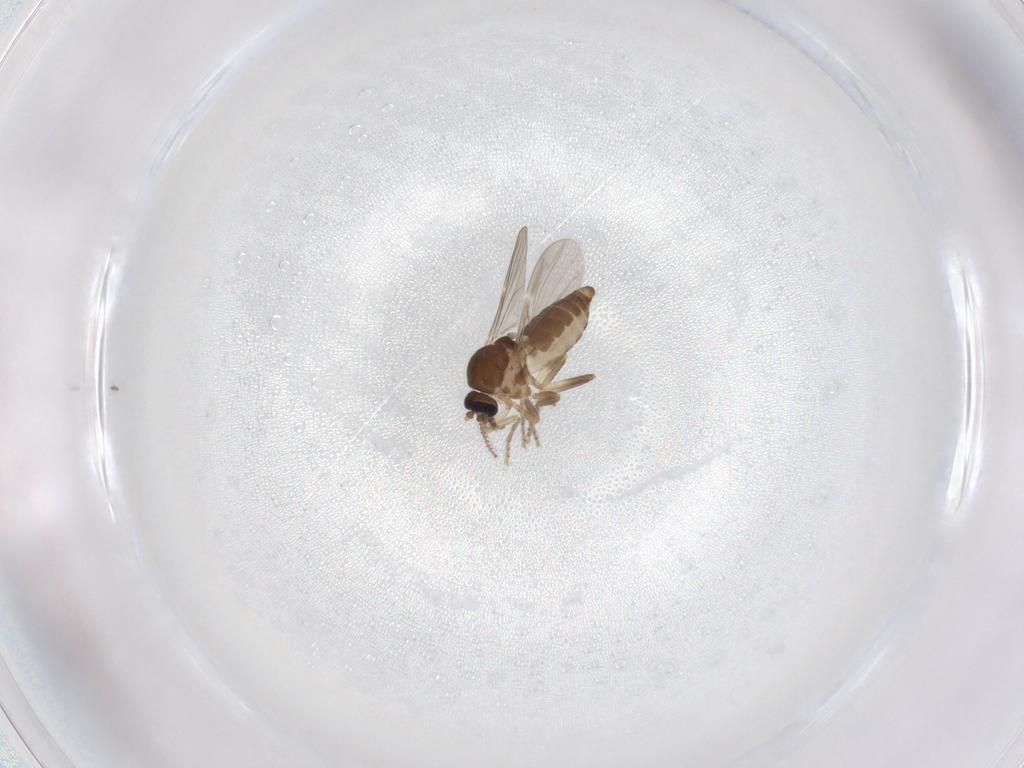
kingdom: Animalia
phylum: Arthropoda
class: Insecta
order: Diptera
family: Ceratopogonidae
